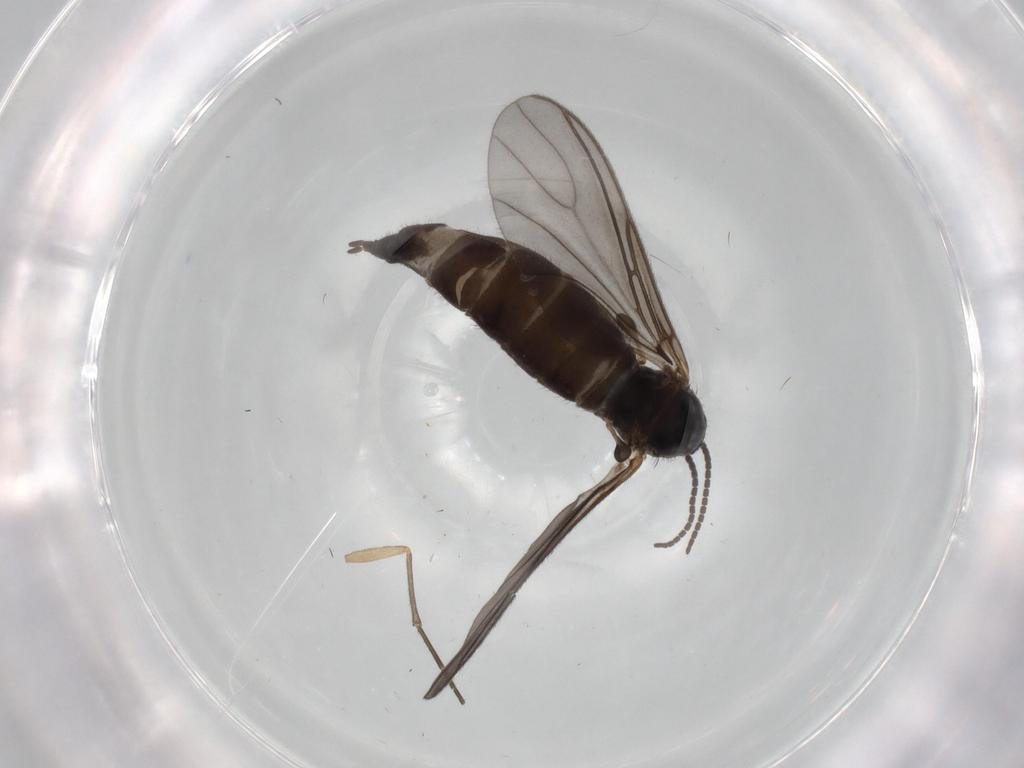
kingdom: Animalia
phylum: Arthropoda
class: Insecta
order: Diptera
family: Sciaridae
